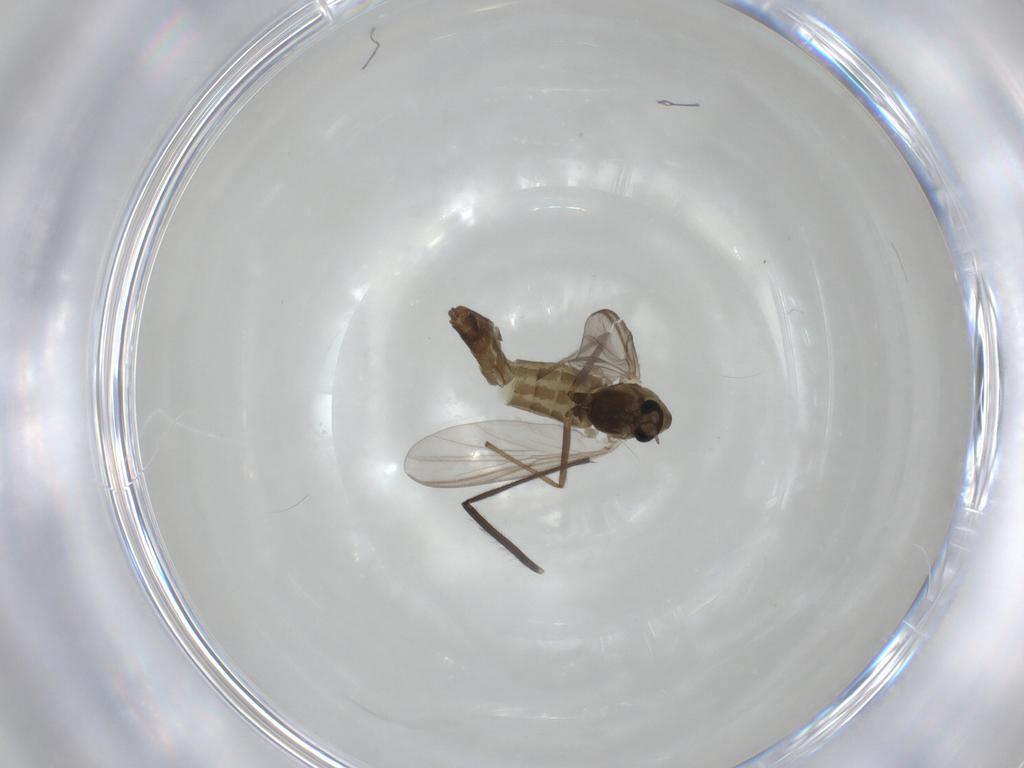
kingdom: Animalia
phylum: Arthropoda
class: Insecta
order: Diptera
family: Chironomidae
